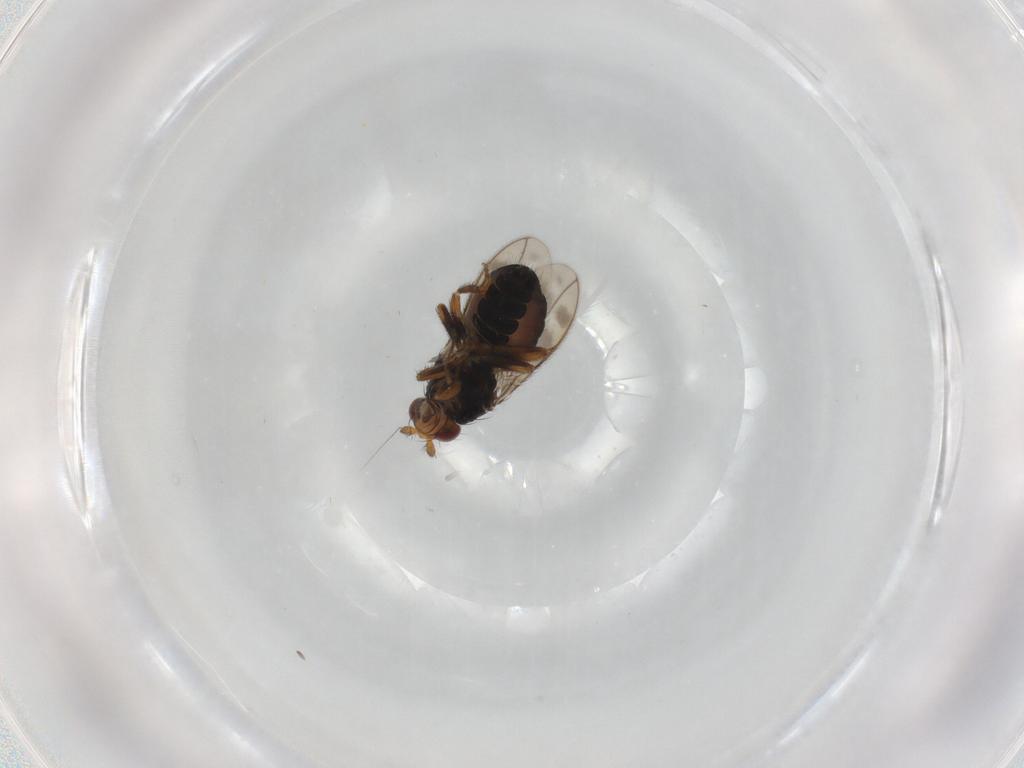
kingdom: Animalia
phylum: Arthropoda
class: Insecta
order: Diptera
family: Sphaeroceridae
